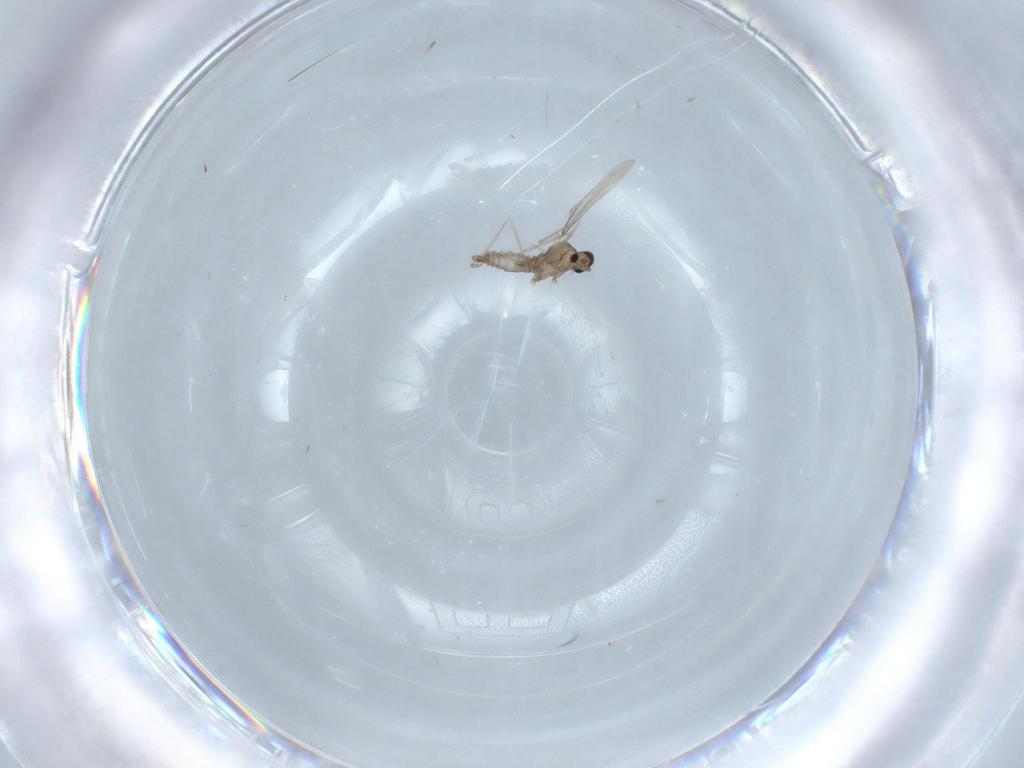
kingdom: Animalia
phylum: Arthropoda
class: Insecta
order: Diptera
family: Cecidomyiidae
